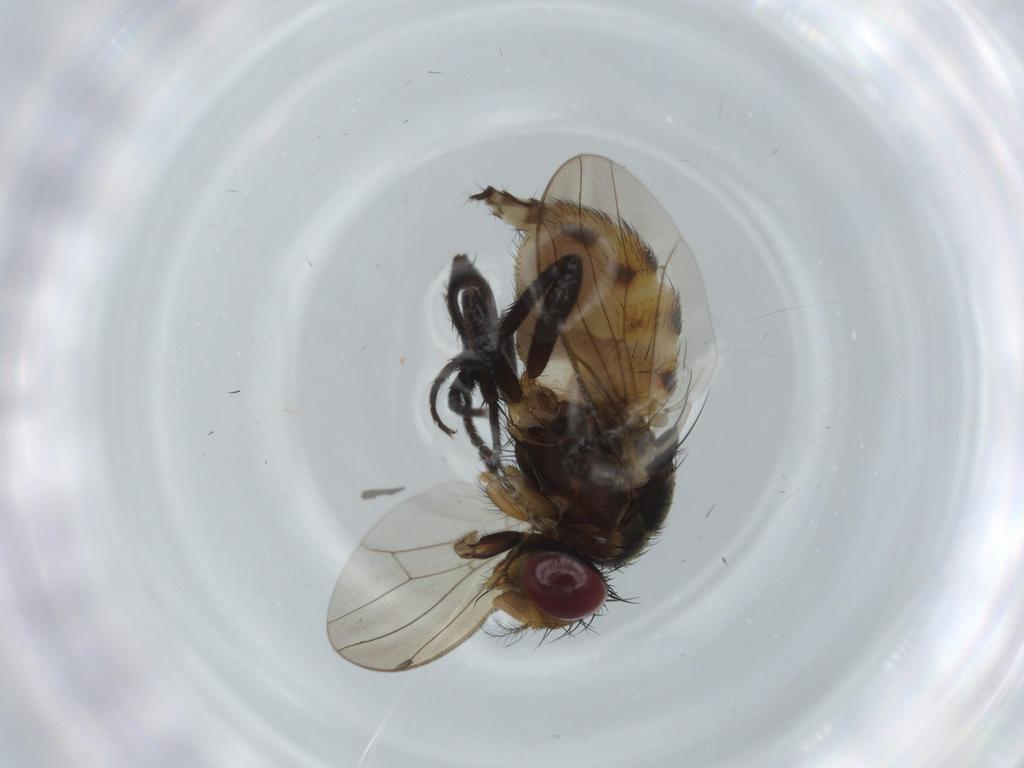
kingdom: Animalia
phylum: Arthropoda
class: Insecta
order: Diptera
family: Anthomyiidae
